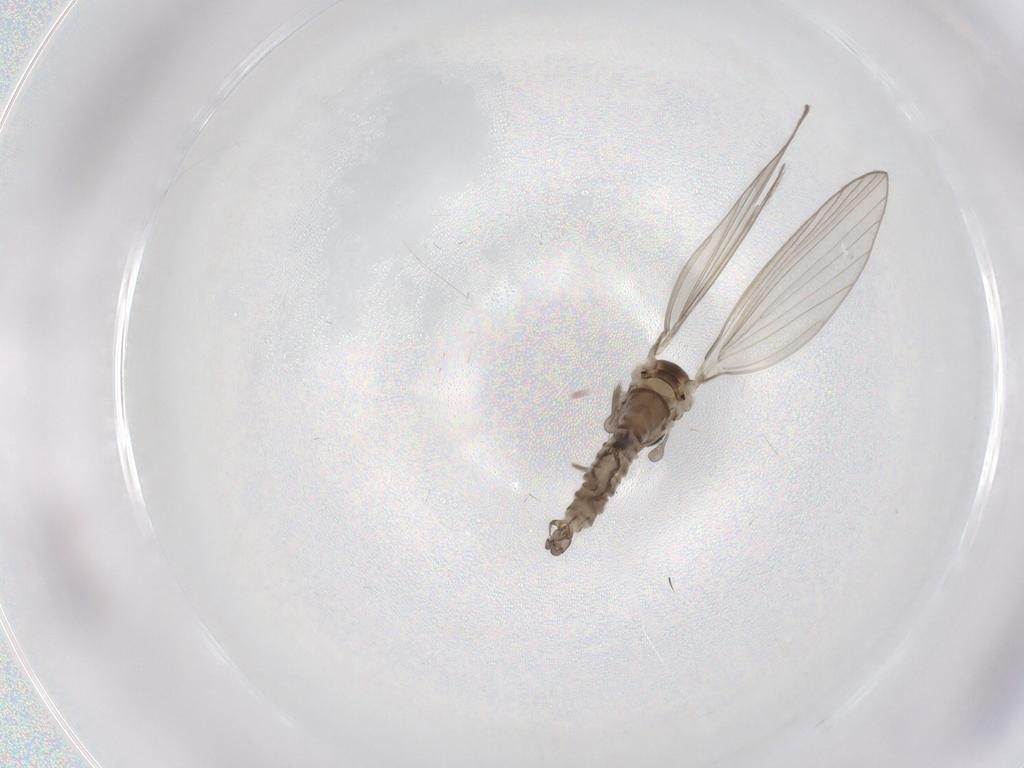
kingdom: Animalia
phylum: Arthropoda
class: Insecta
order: Diptera
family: Psychodidae
